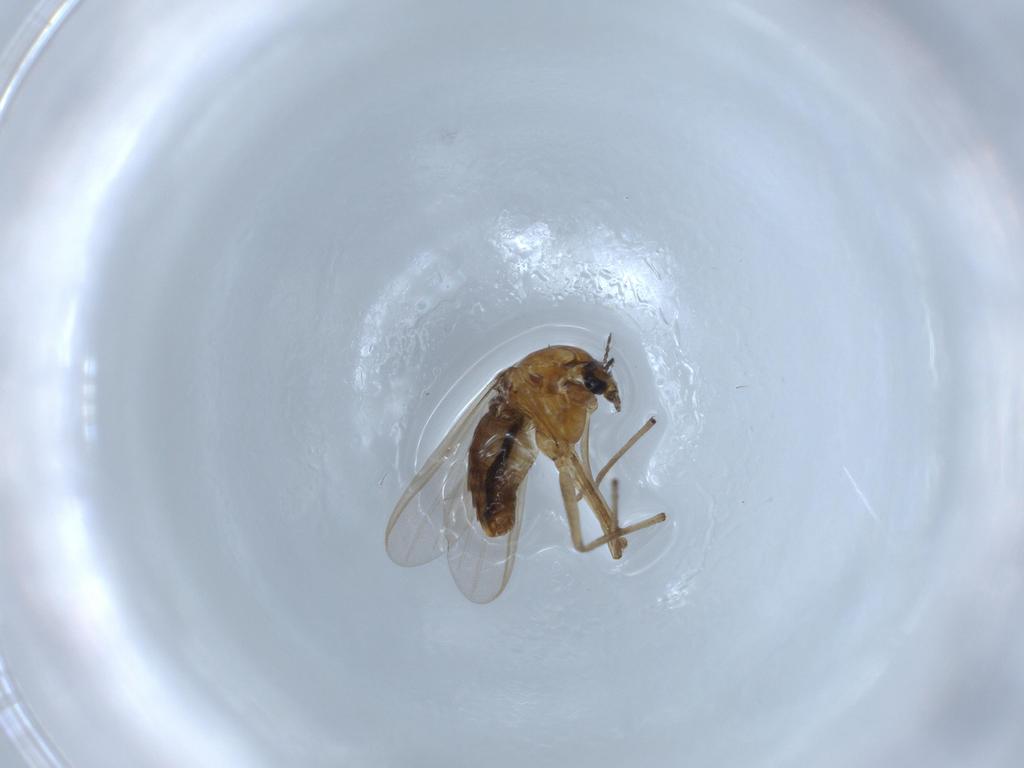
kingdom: Animalia
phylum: Arthropoda
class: Insecta
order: Diptera
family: Chironomidae
